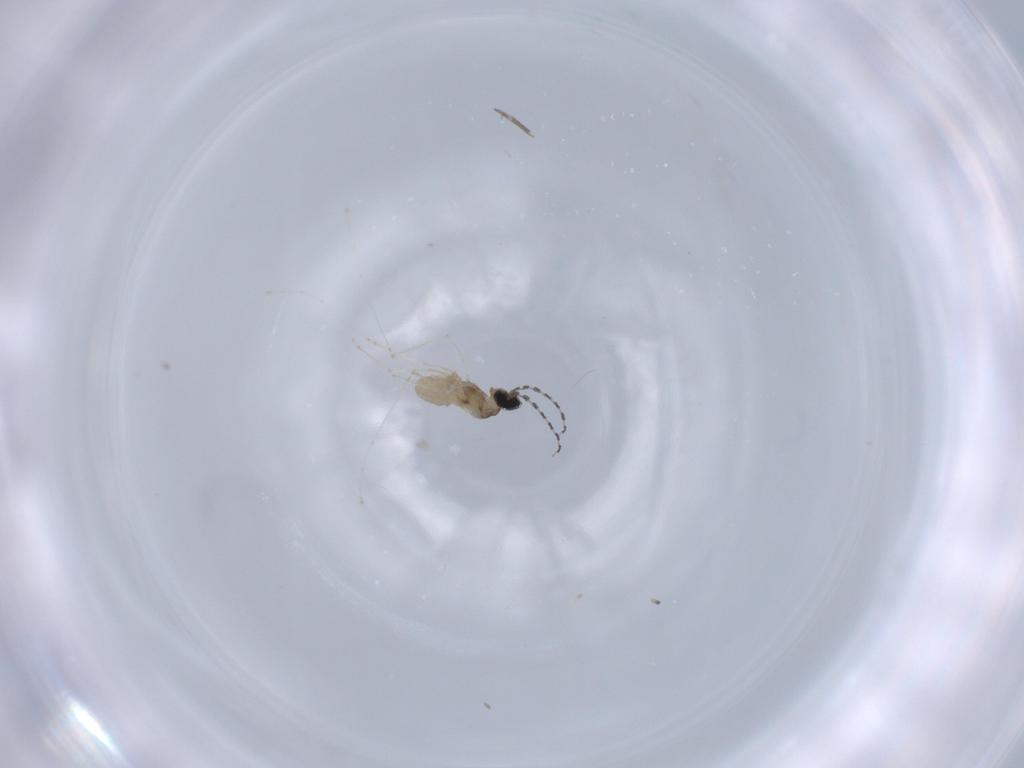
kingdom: Animalia
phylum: Arthropoda
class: Insecta
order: Diptera
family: Cecidomyiidae
